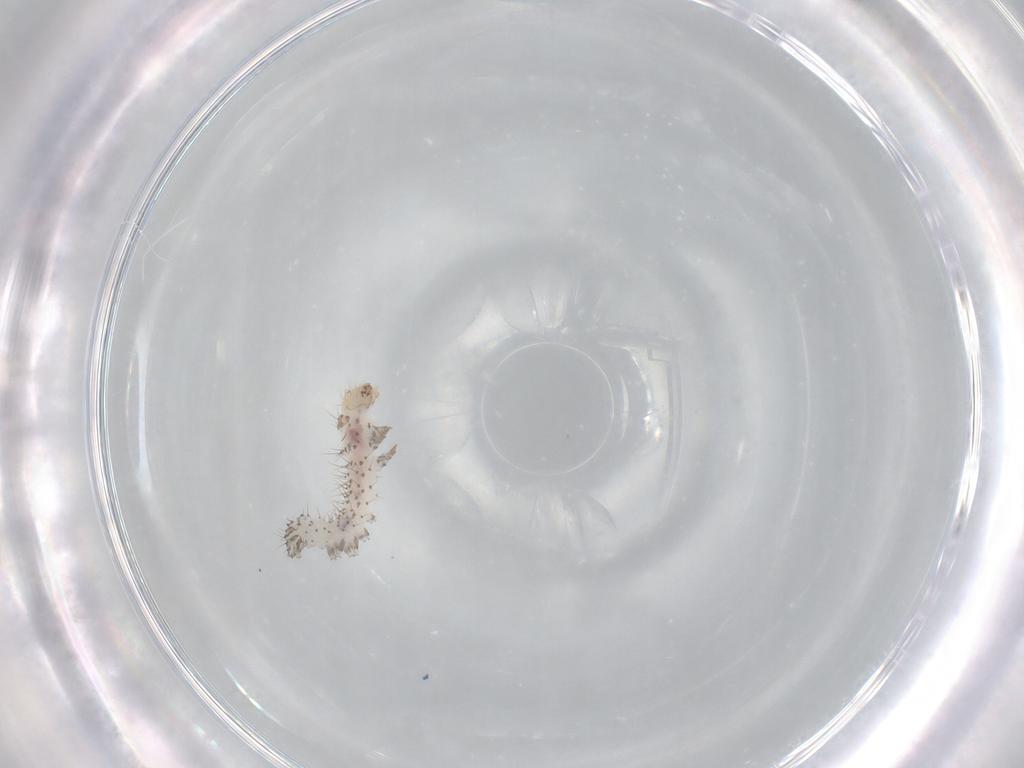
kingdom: Animalia
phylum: Arthropoda
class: Insecta
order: Lepidoptera
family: Erebidae
